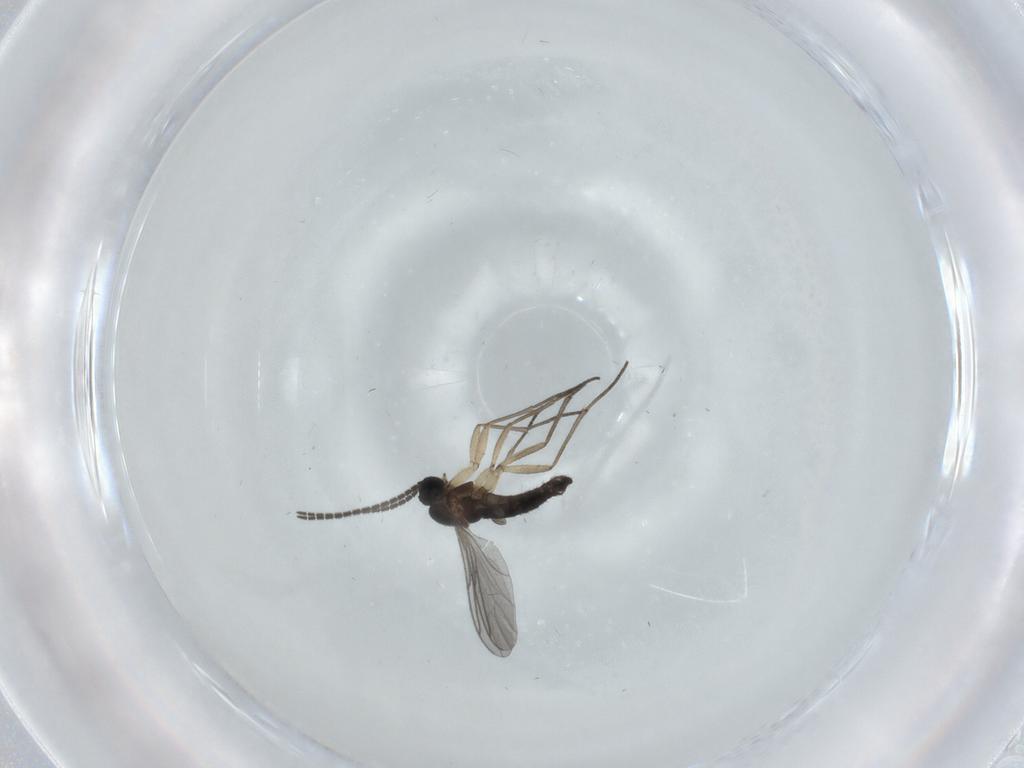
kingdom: Animalia
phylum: Arthropoda
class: Insecta
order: Diptera
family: Sciaridae
